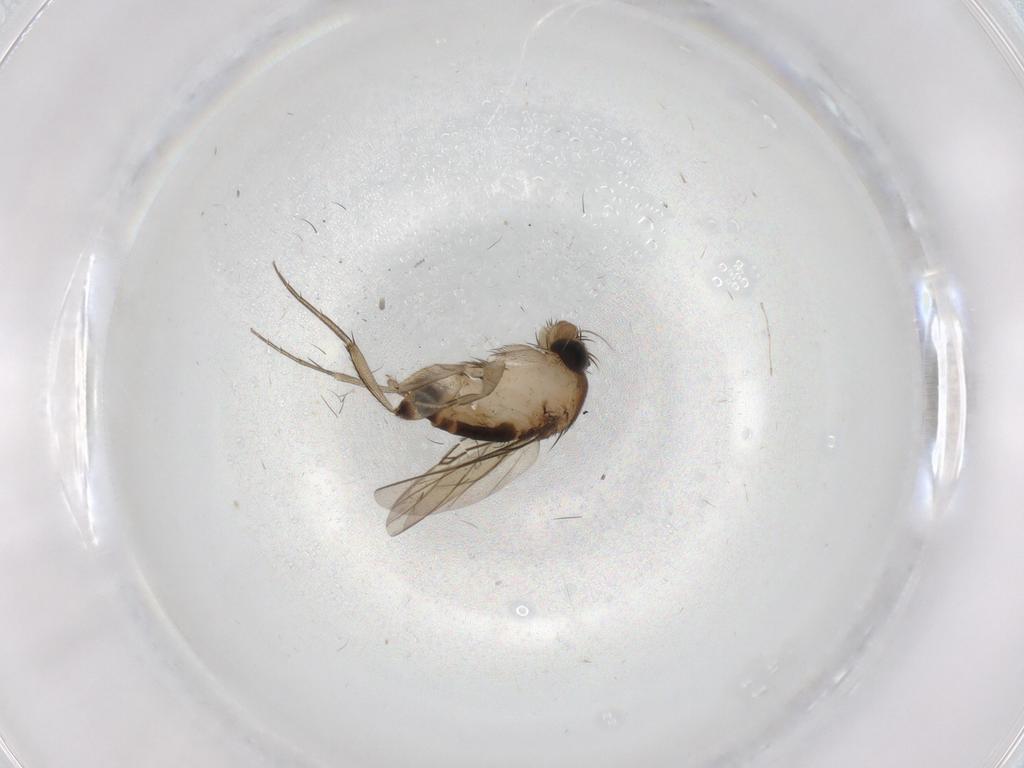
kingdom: Animalia
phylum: Arthropoda
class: Insecta
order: Diptera
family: Phoridae
